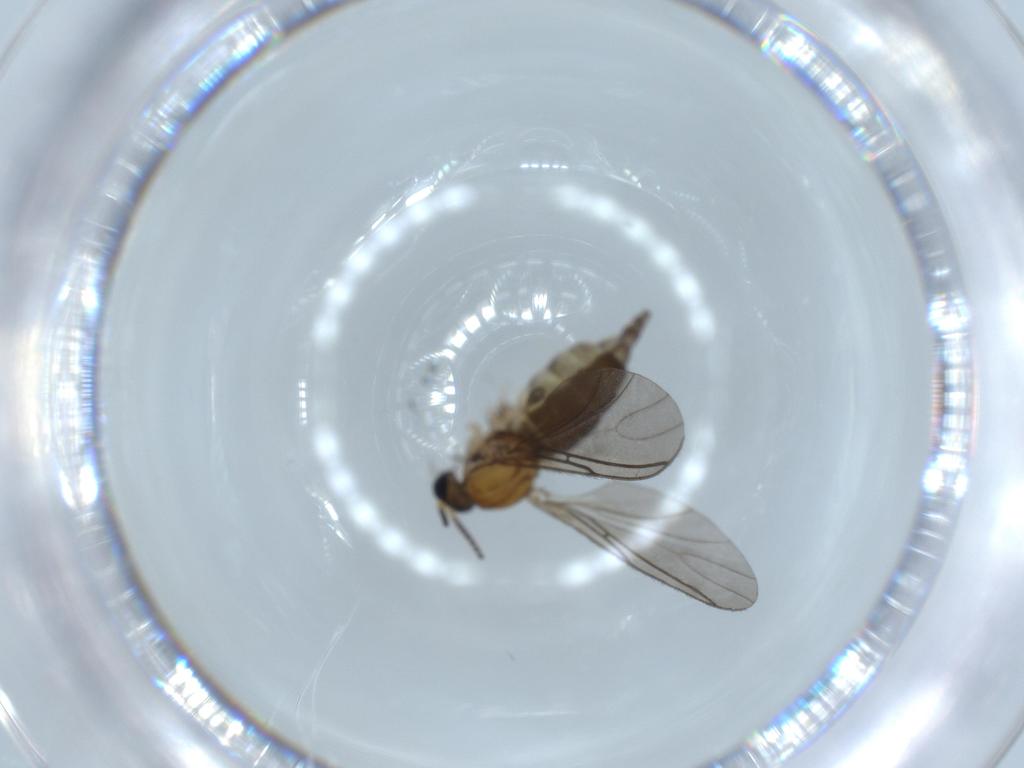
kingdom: Animalia
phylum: Arthropoda
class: Insecta
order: Diptera
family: Sciaridae
